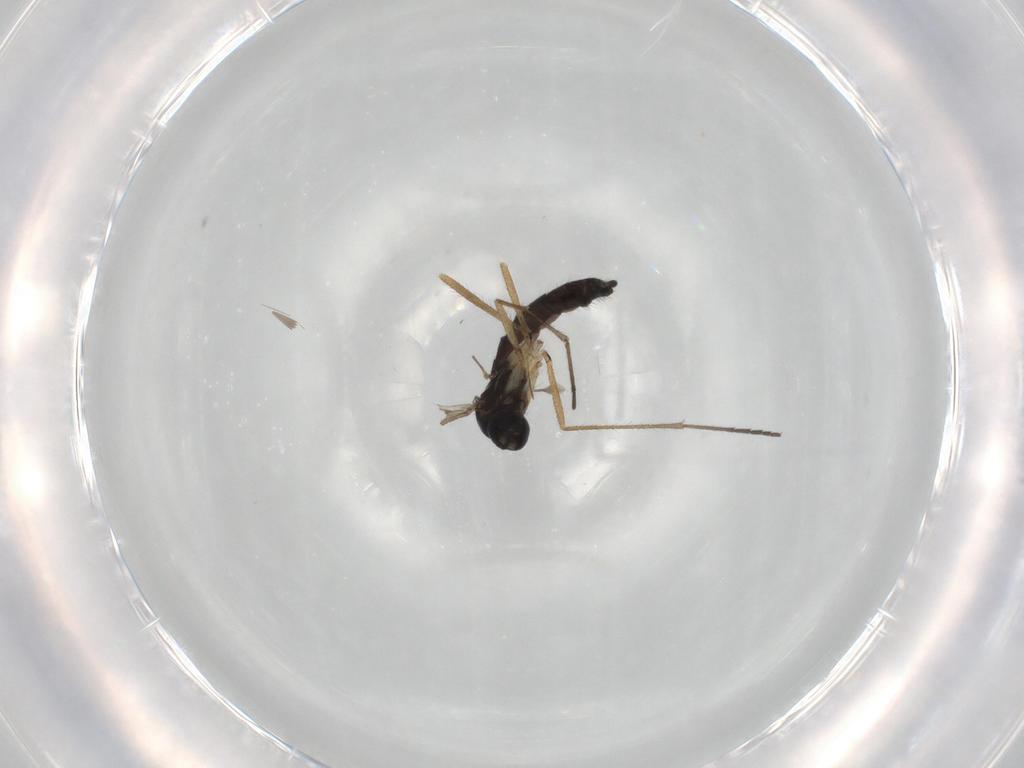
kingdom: Animalia
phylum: Arthropoda
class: Insecta
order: Diptera
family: Sciaridae
